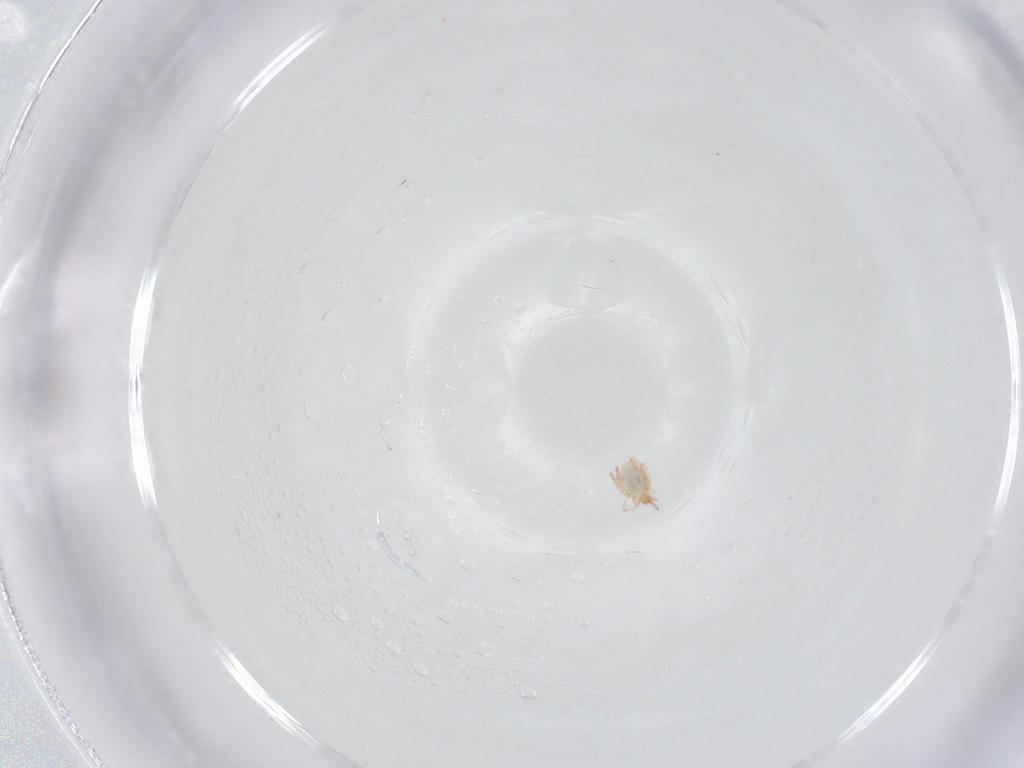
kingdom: Animalia
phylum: Arthropoda
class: Arachnida
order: Trombidiformes
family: Cunaxidae
